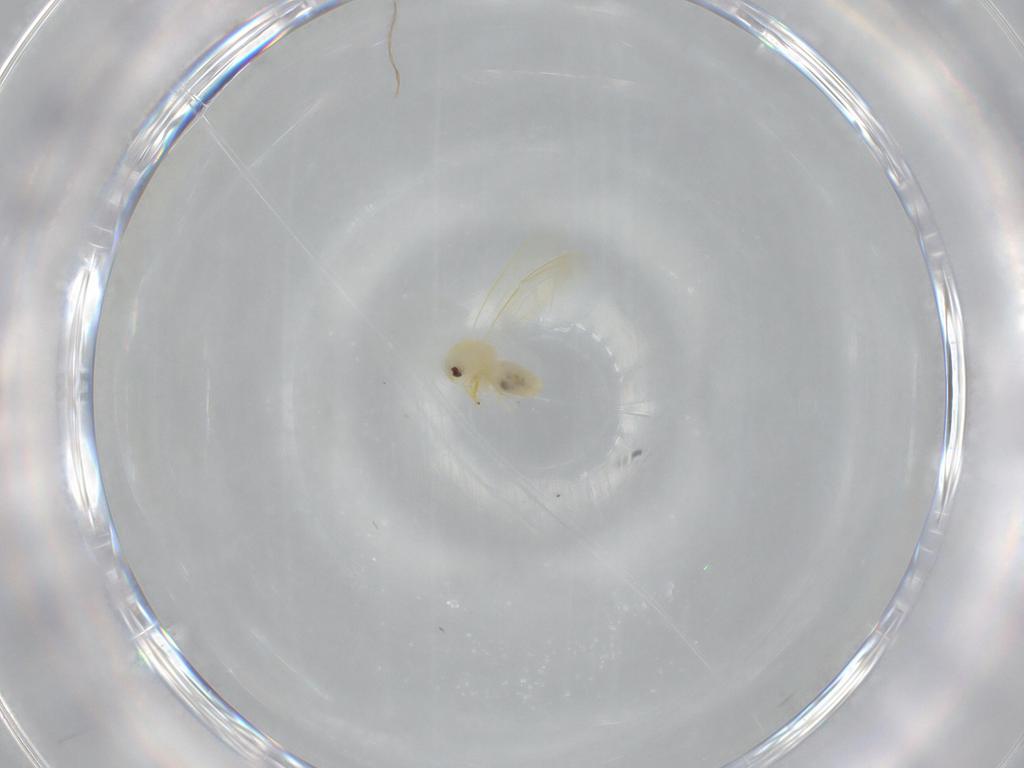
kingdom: Animalia
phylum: Arthropoda
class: Insecta
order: Hemiptera
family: Aleyrodidae
